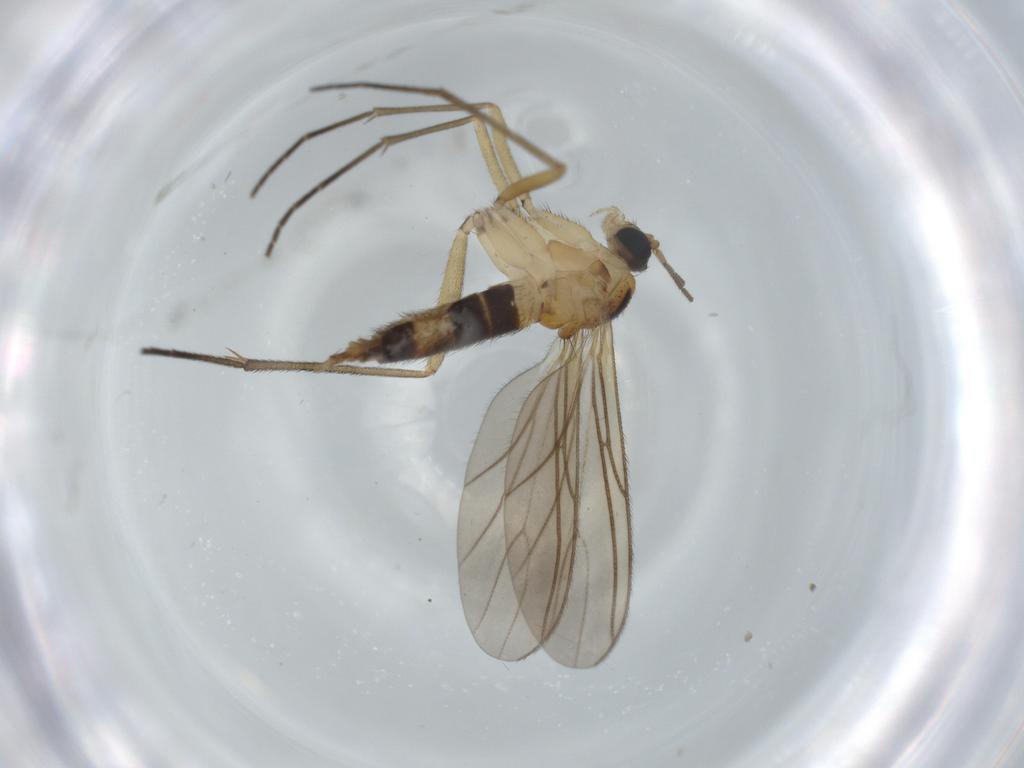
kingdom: Animalia
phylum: Arthropoda
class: Insecta
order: Diptera
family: Sciaridae
